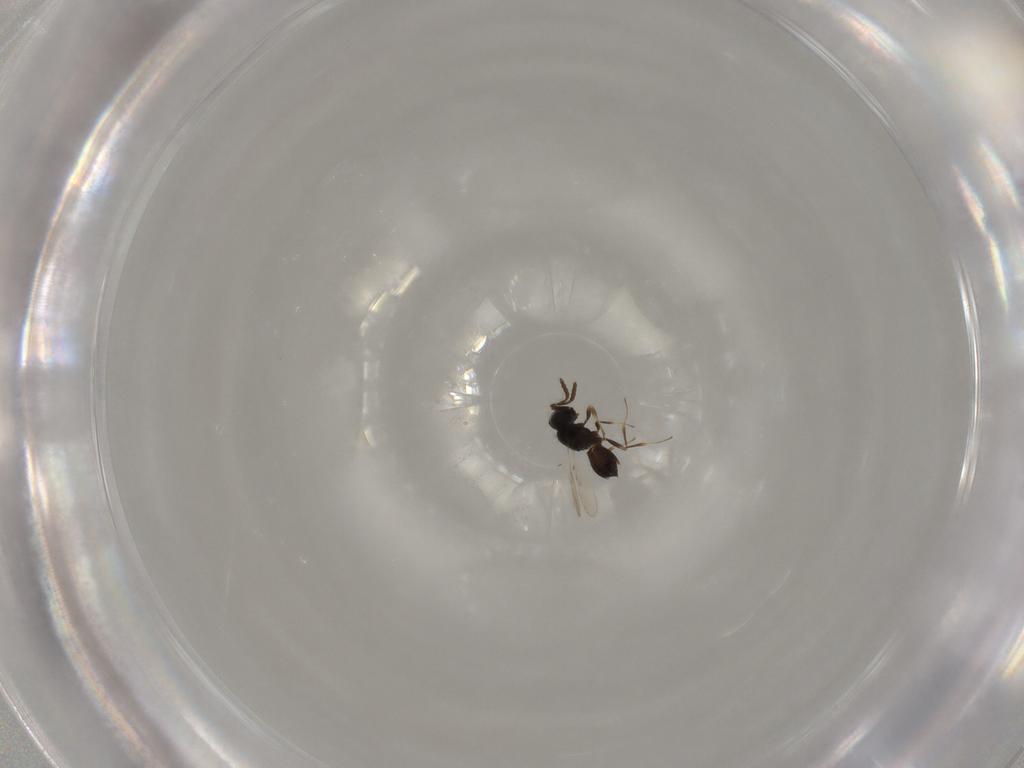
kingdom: Animalia
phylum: Arthropoda
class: Insecta
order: Hymenoptera
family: Scelionidae
